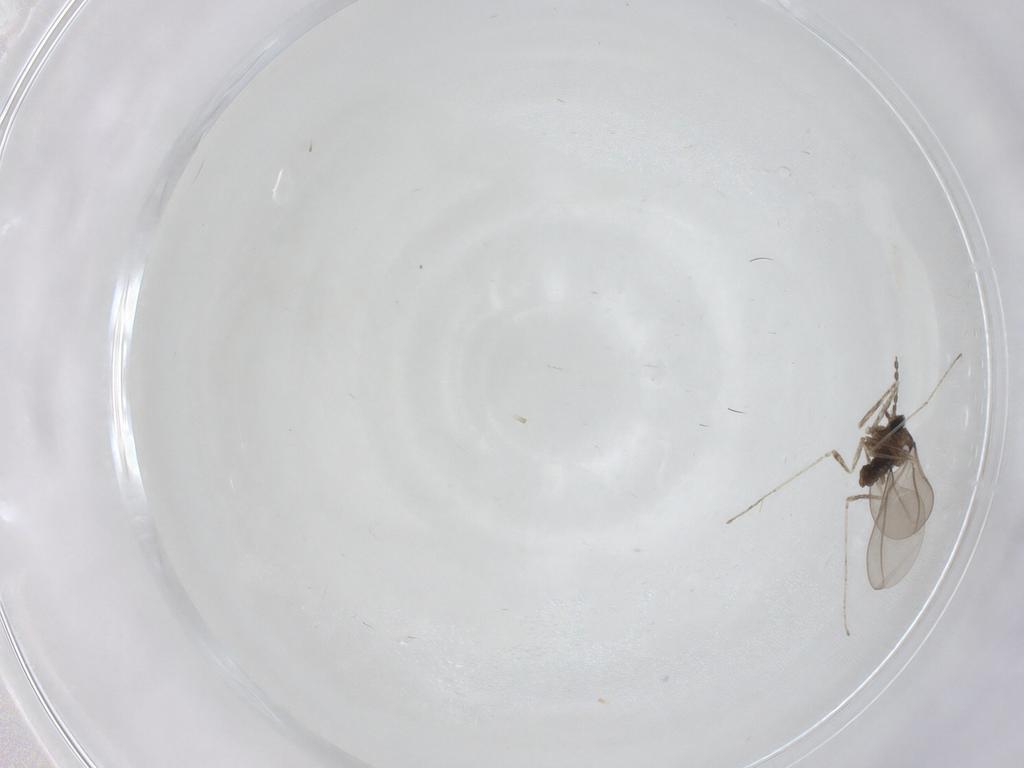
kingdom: Animalia
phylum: Arthropoda
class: Insecta
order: Diptera
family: Cecidomyiidae
